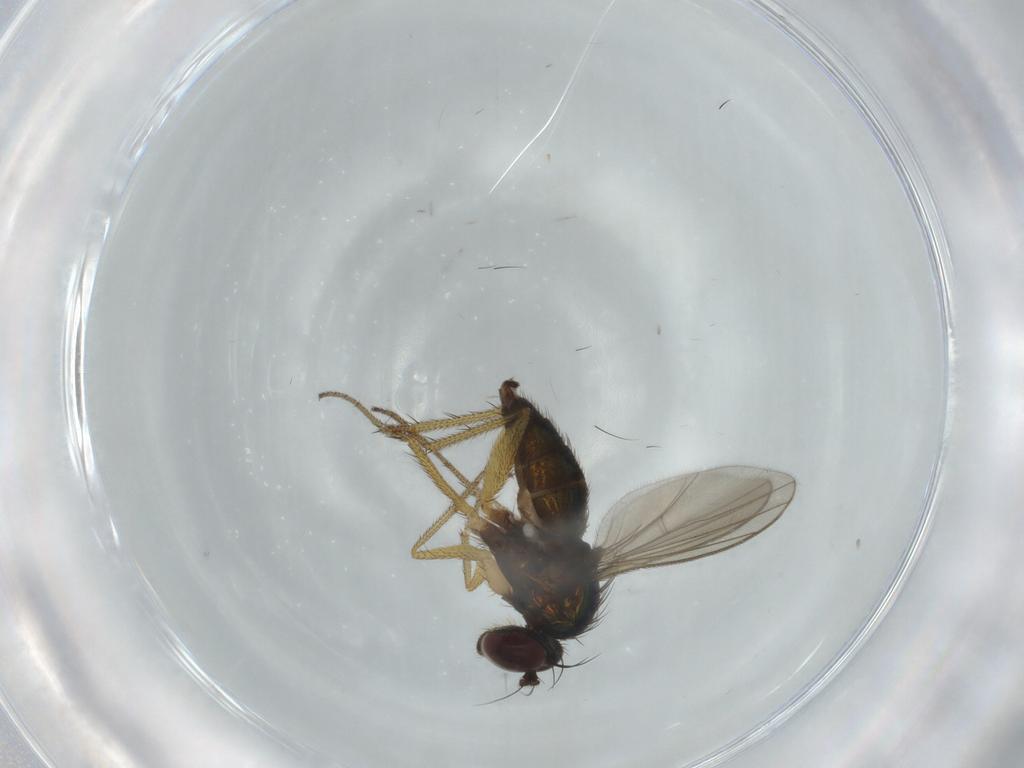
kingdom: Animalia
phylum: Arthropoda
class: Insecta
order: Diptera
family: Dolichopodidae
